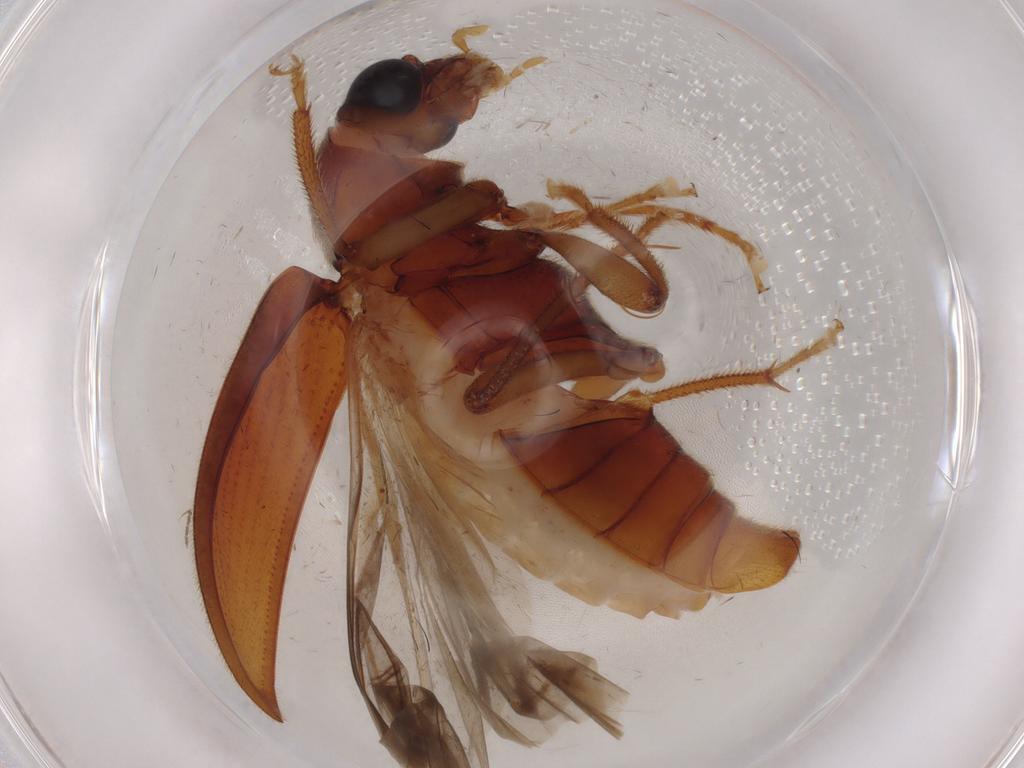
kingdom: Animalia
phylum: Arthropoda
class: Insecta
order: Coleoptera
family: Ptilodactylidae
